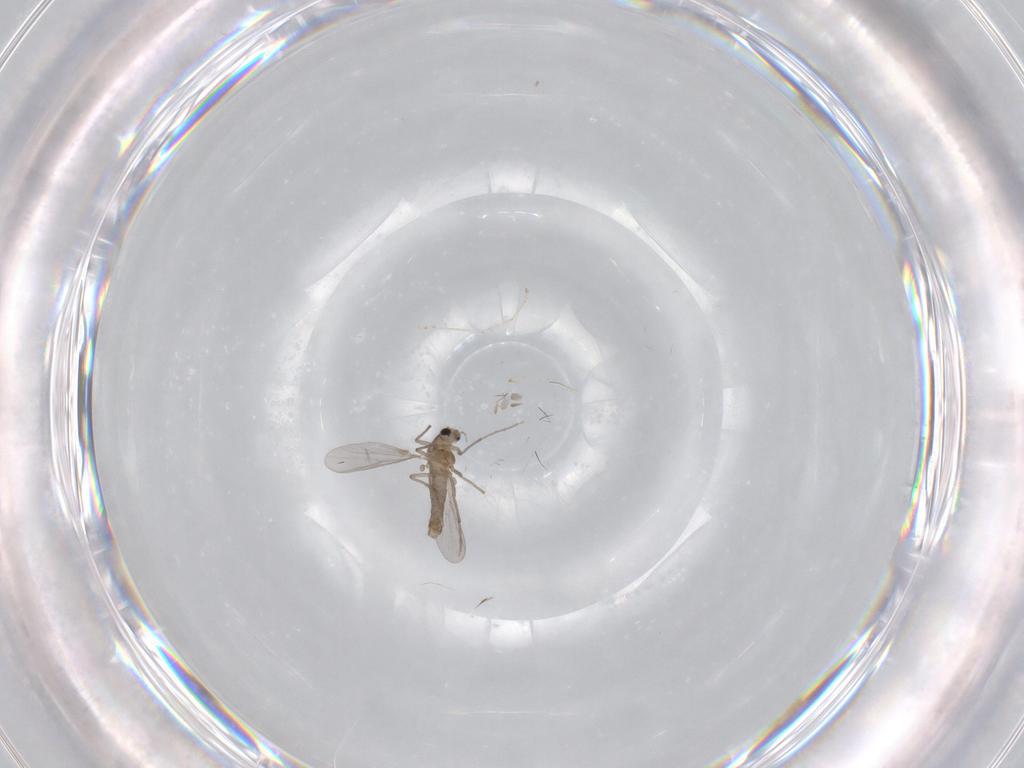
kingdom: Animalia
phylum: Arthropoda
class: Insecta
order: Diptera
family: Chironomidae
